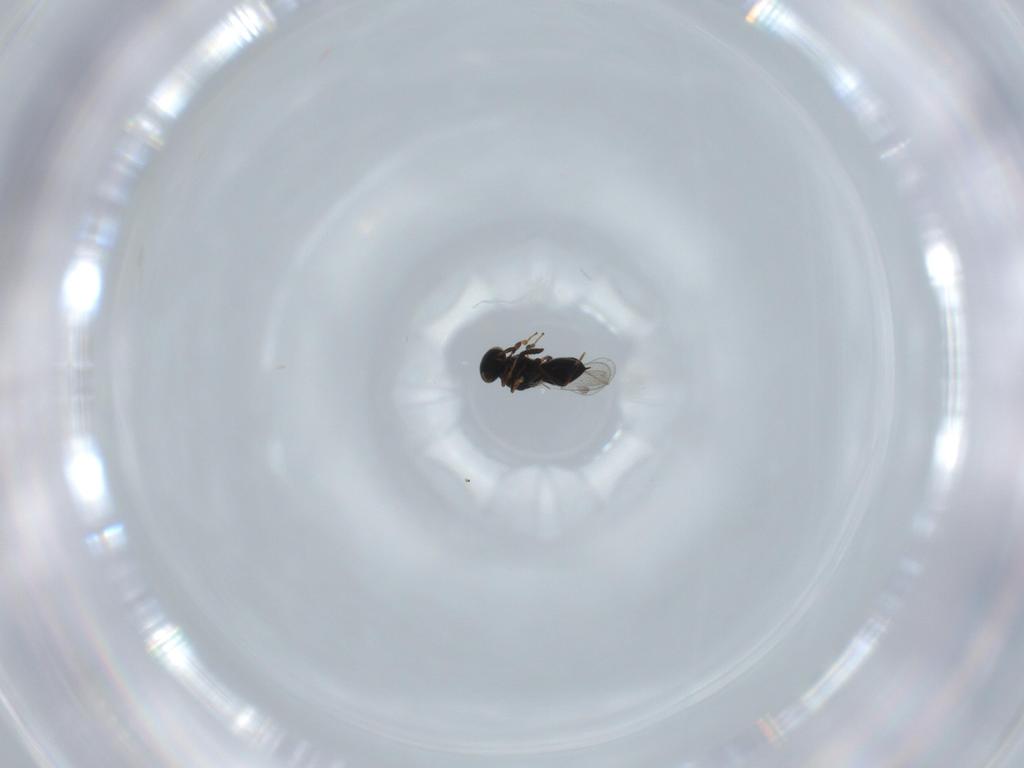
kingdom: Animalia
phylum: Arthropoda
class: Insecta
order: Hymenoptera
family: Platygastridae
